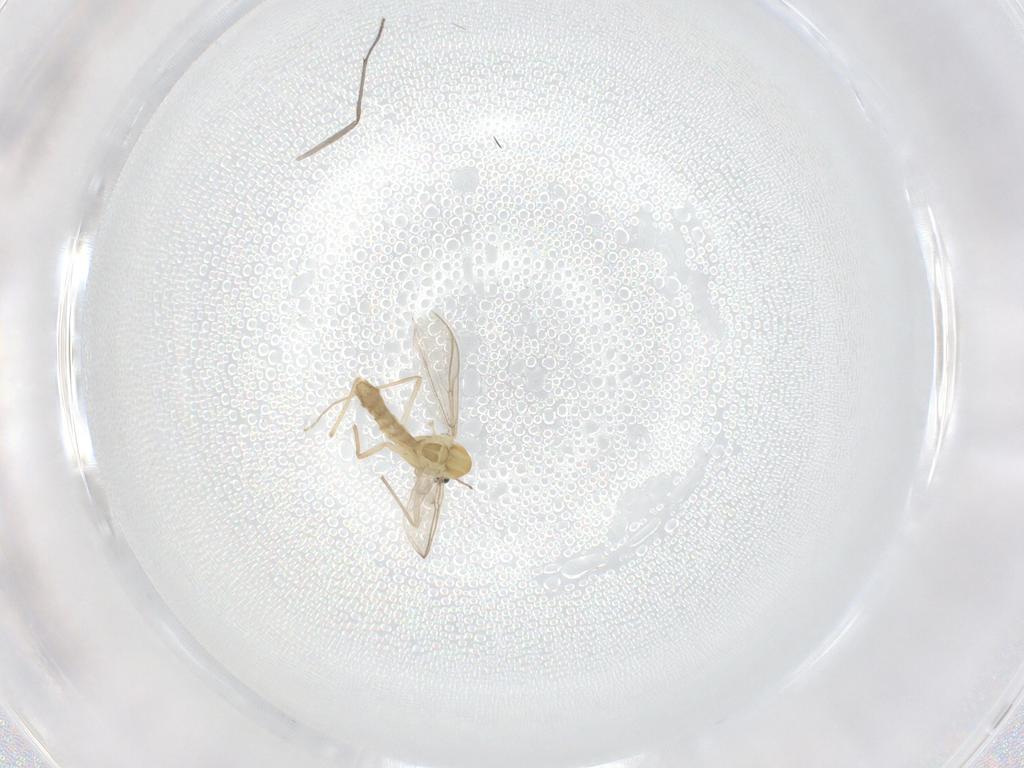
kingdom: Animalia
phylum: Arthropoda
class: Insecta
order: Diptera
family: Chironomidae
